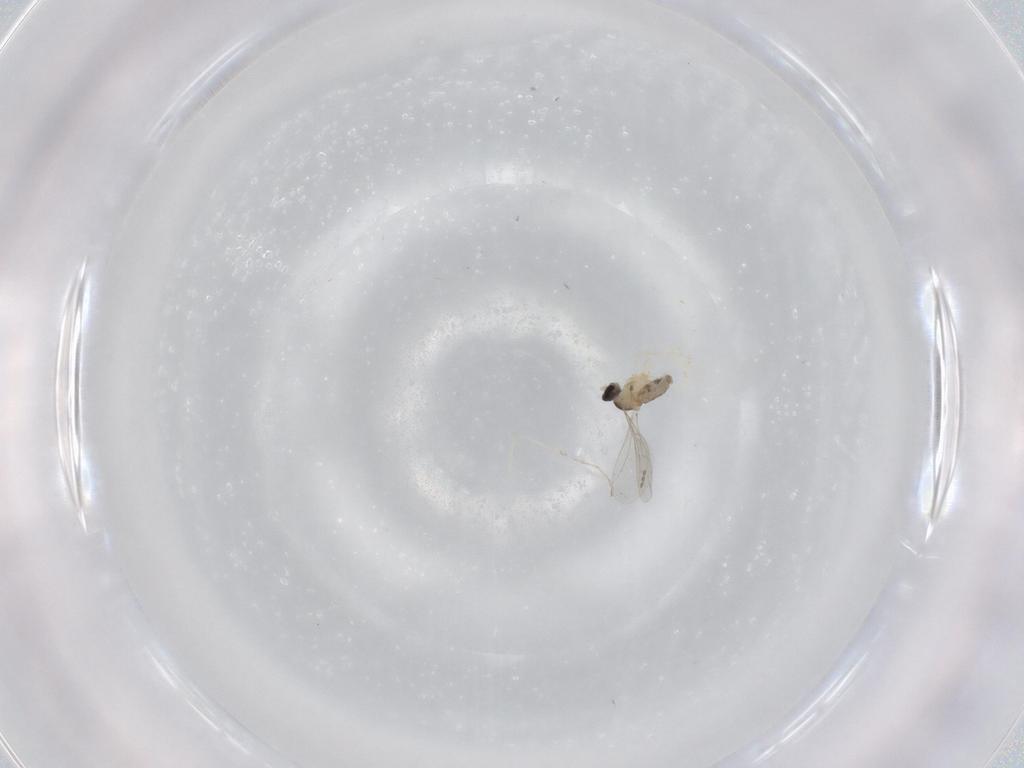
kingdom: Animalia
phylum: Arthropoda
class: Insecta
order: Diptera
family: Cecidomyiidae
